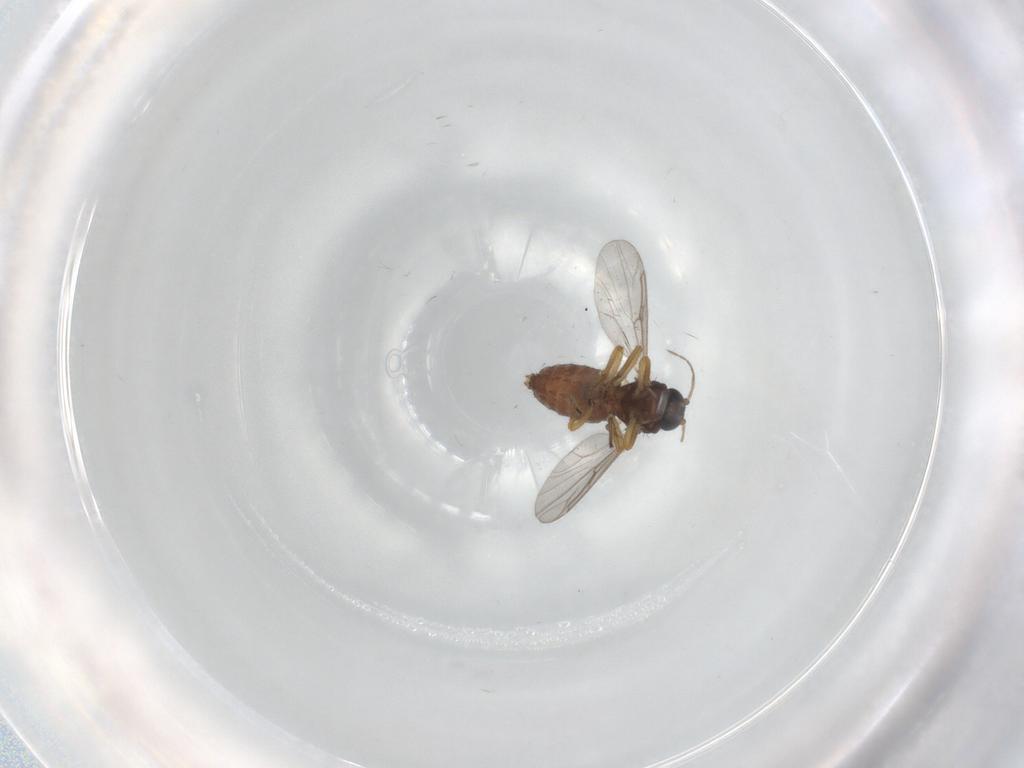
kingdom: Animalia
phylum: Arthropoda
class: Insecta
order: Diptera
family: Ceratopogonidae
